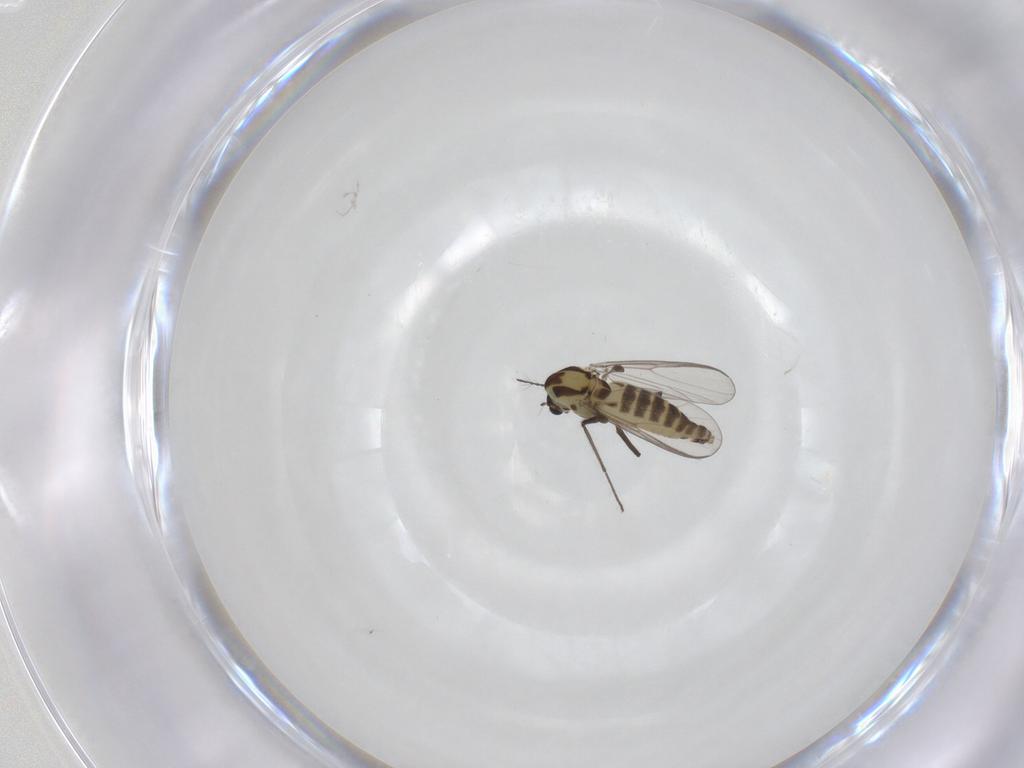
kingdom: Animalia
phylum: Arthropoda
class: Insecta
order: Diptera
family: Chironomidae
